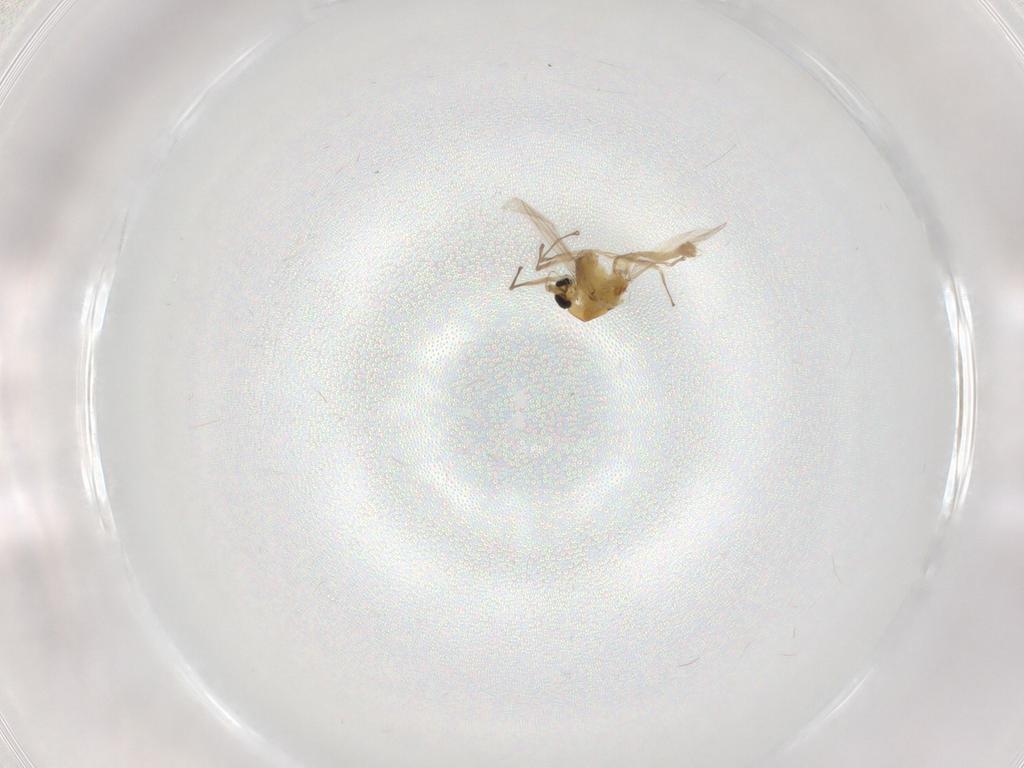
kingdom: Animalia
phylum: Arthropoda
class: Insecta
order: Diptera
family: Chironomidae
